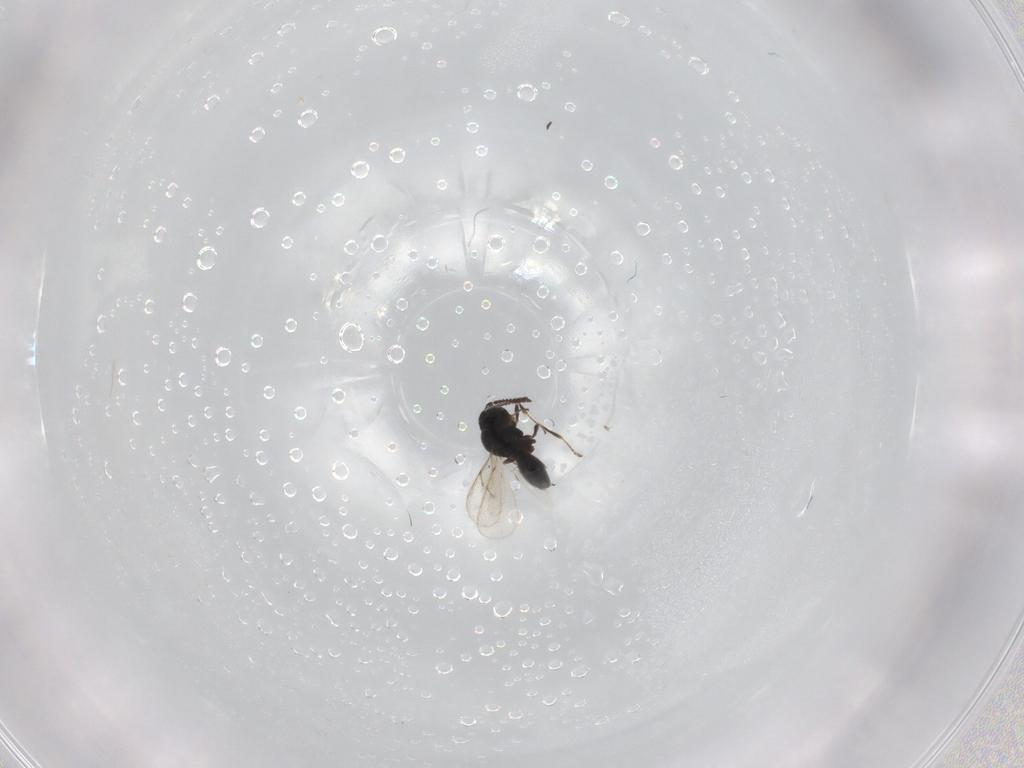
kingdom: Animalia
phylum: Arthropoda
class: Insecta
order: Hymenoptera
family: Scelionidae
